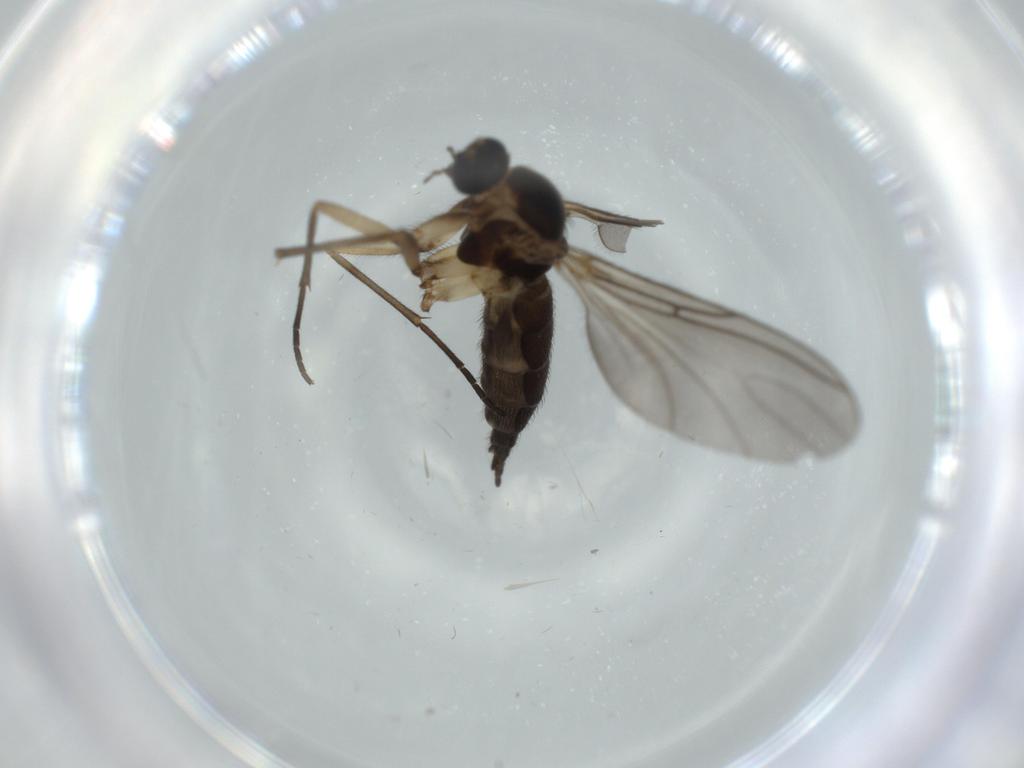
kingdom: Animalia
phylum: Arthropoda
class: Insecta
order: Diptera
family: Sciaridae
